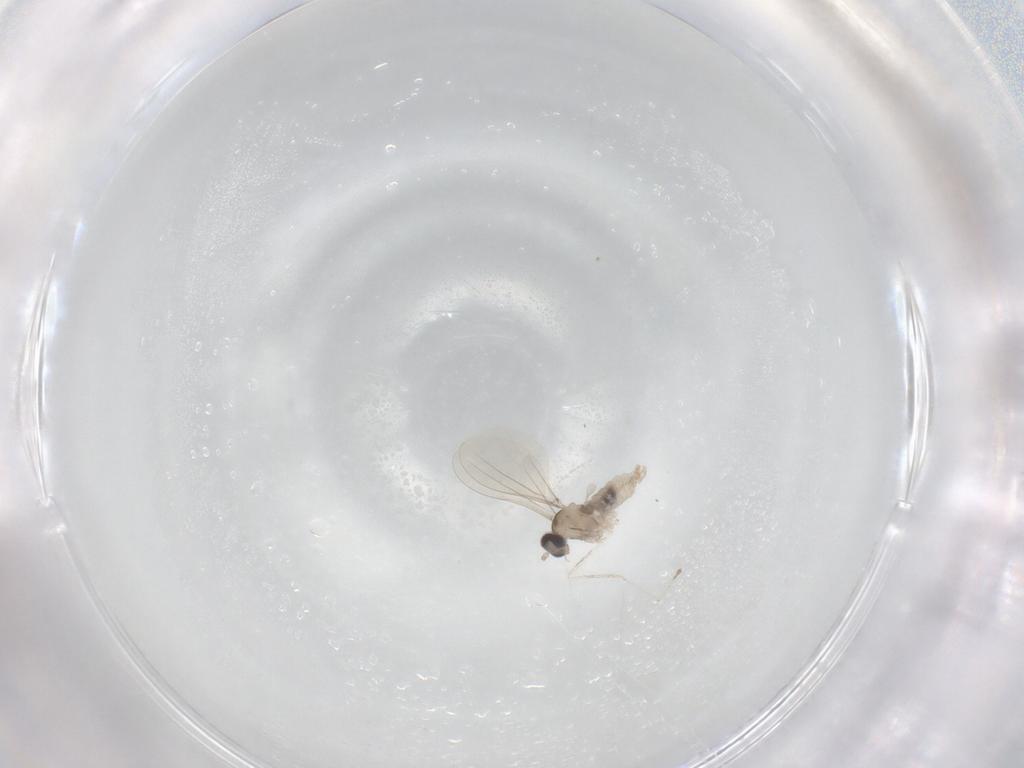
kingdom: Animalia
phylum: Arthropoda
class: Insecta
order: Diptera
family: Cecidomyiidae
